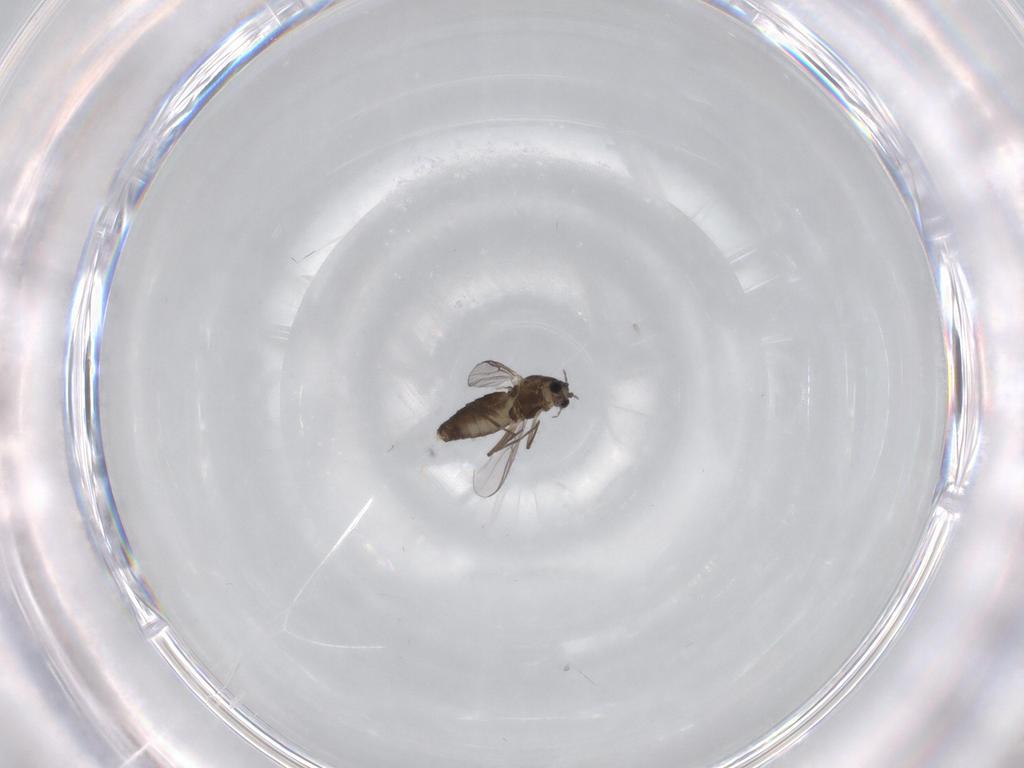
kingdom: Animalia
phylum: Arthropoda
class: Insecta
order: Diptera
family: Chironomidae
